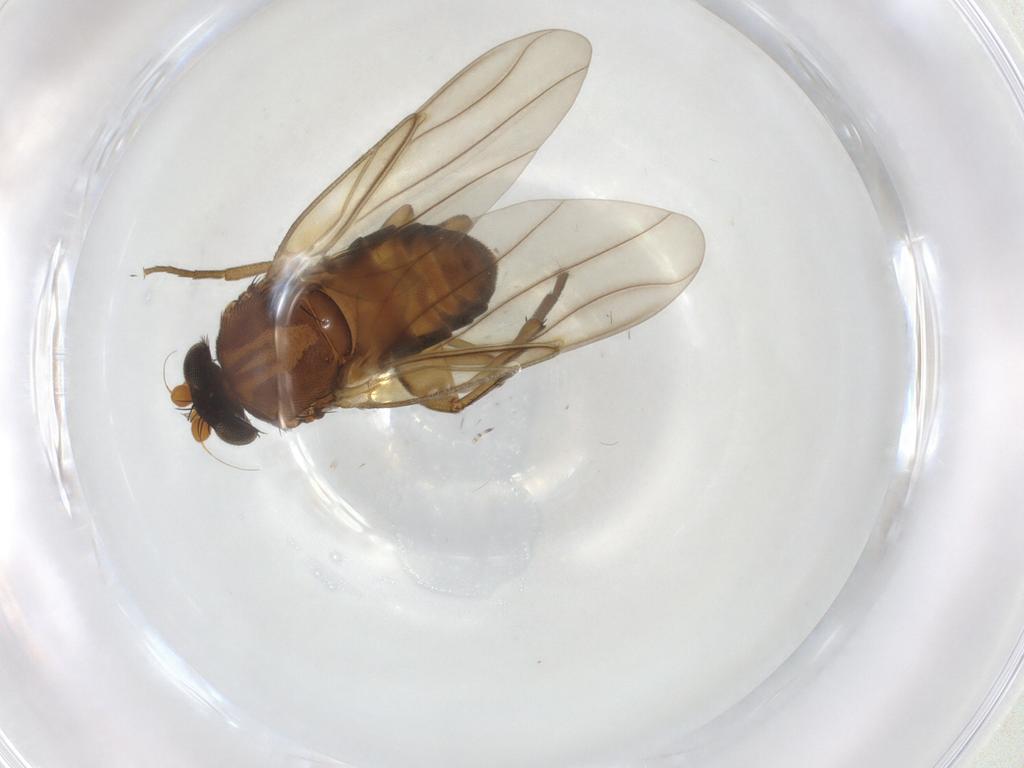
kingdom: Animalia
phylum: Arthropoda
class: Insecta
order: Diptera
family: Phoridae
